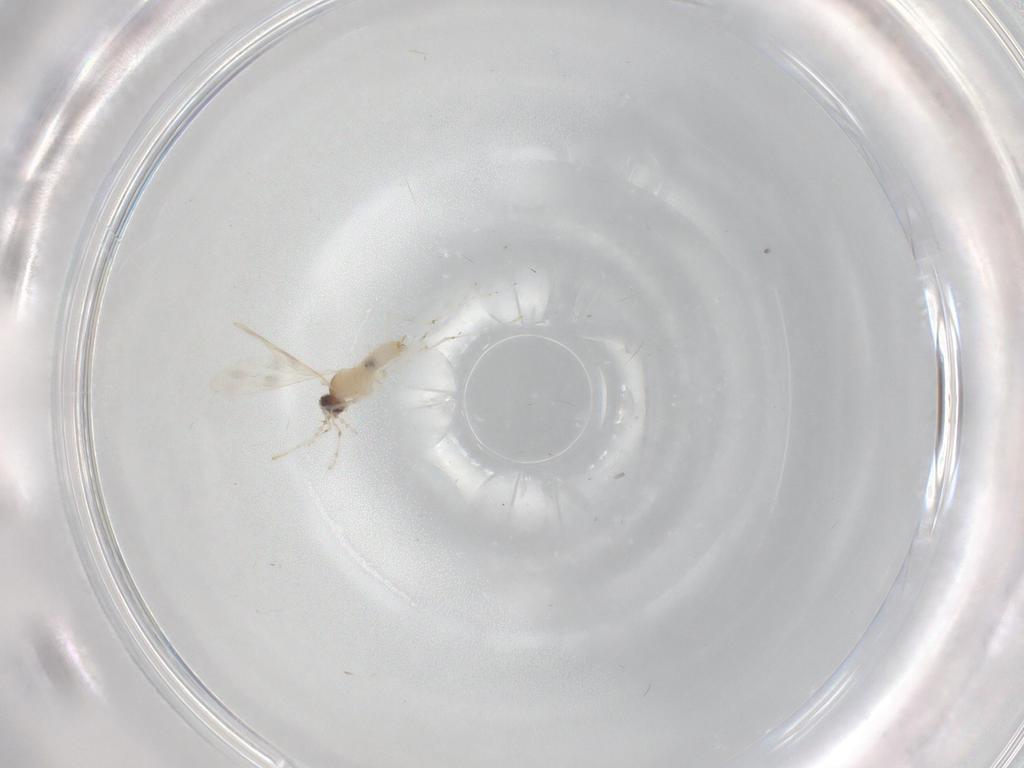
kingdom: Animalia
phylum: Arthropoda
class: Insecta
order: Diptera
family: Cecidomyiidae
